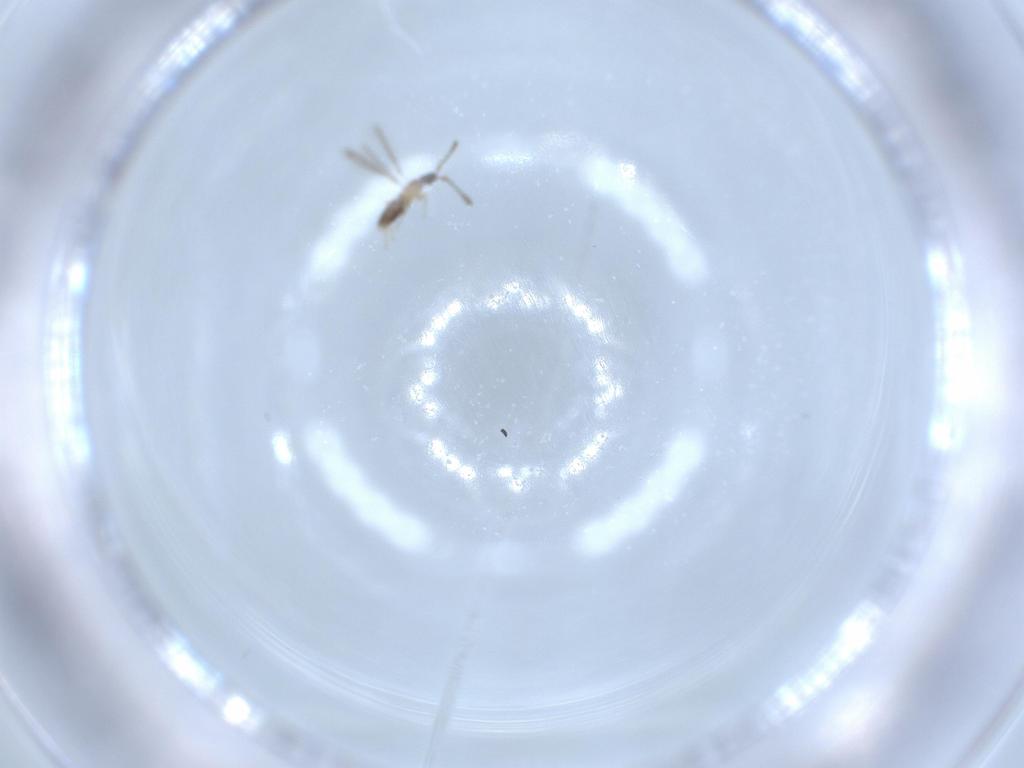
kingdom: Animalia
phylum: Arthropoda
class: Insecta
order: Hymenoptera
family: Mymaridae
